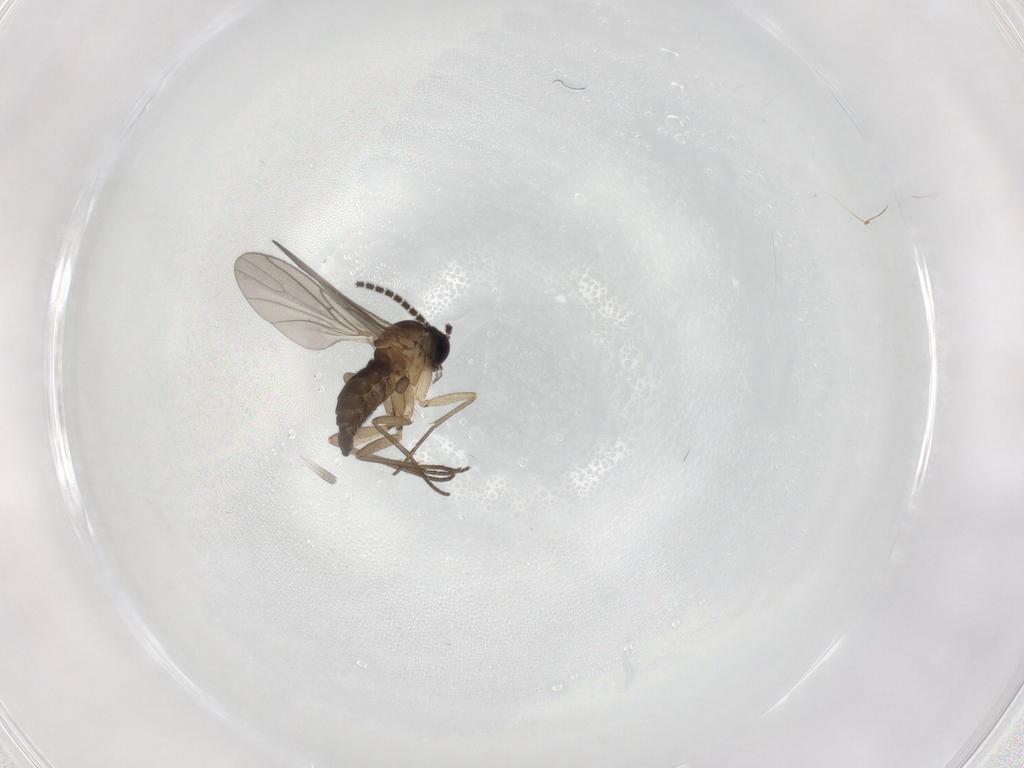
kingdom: Animalia
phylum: Arthropoda
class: Insecta
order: Diptera
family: Sciaridae
